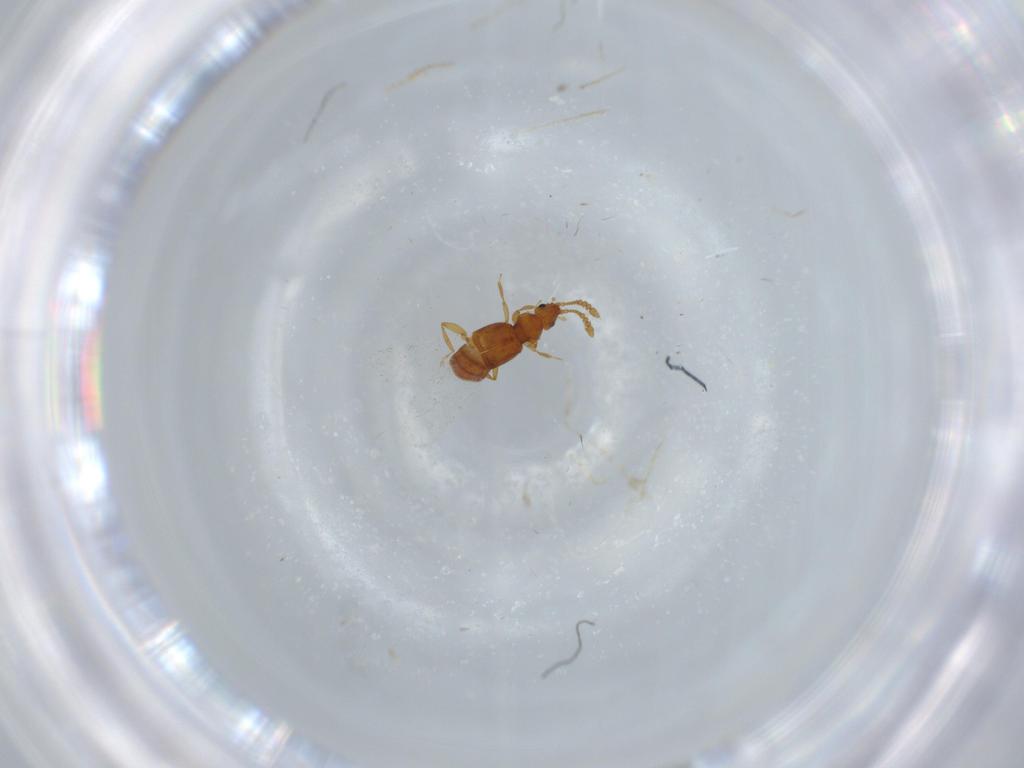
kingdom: Animalia
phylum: Arthropoda
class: Insecta
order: Coleoptera
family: Staphylinidae
